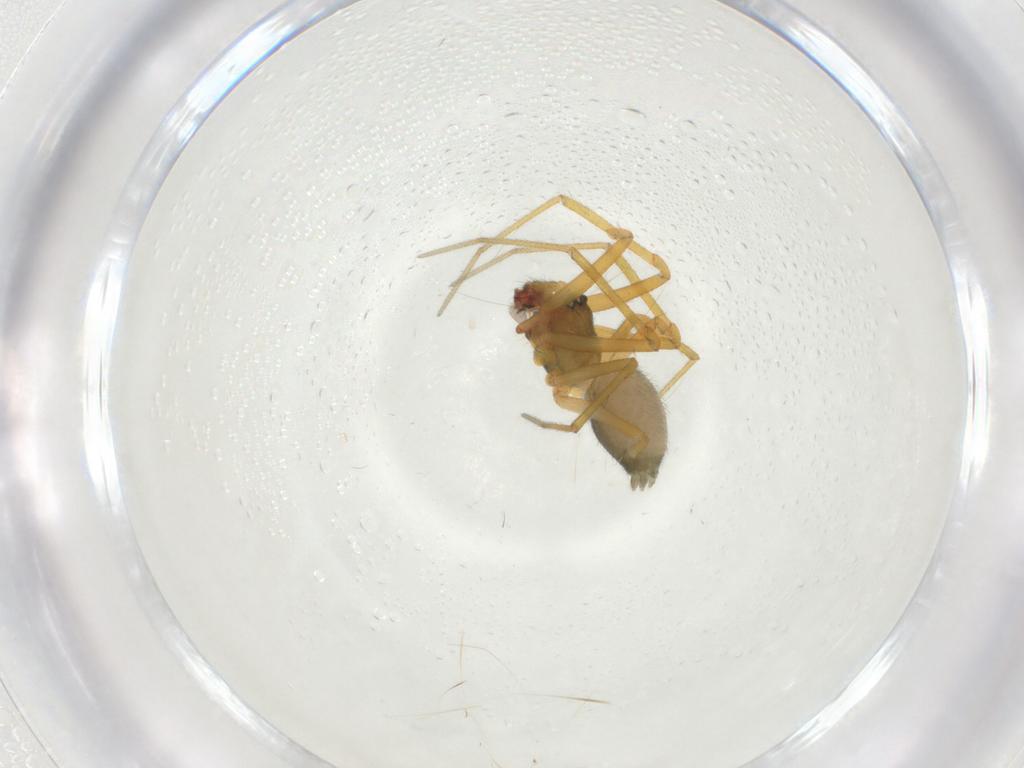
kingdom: Animalia
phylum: Arthropoda
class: Arachnida
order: Araneae
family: Linyphiidae
